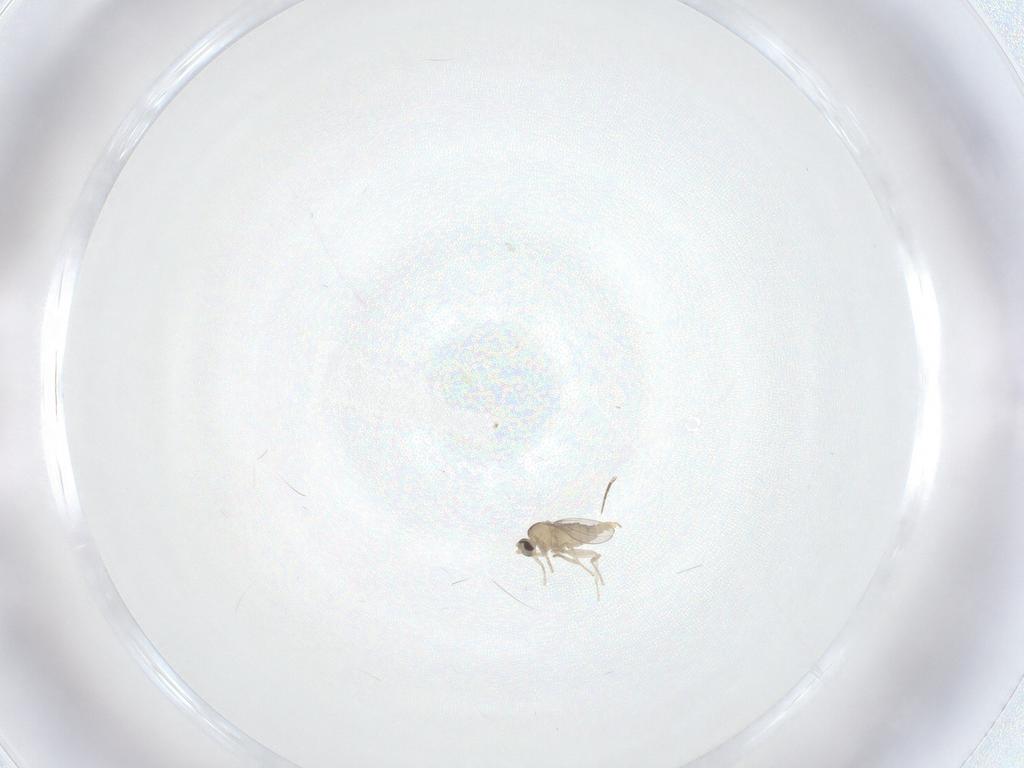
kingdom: Animalia
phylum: Arthropoda
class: Insecta
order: Diptera
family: Cecidomyiidae
